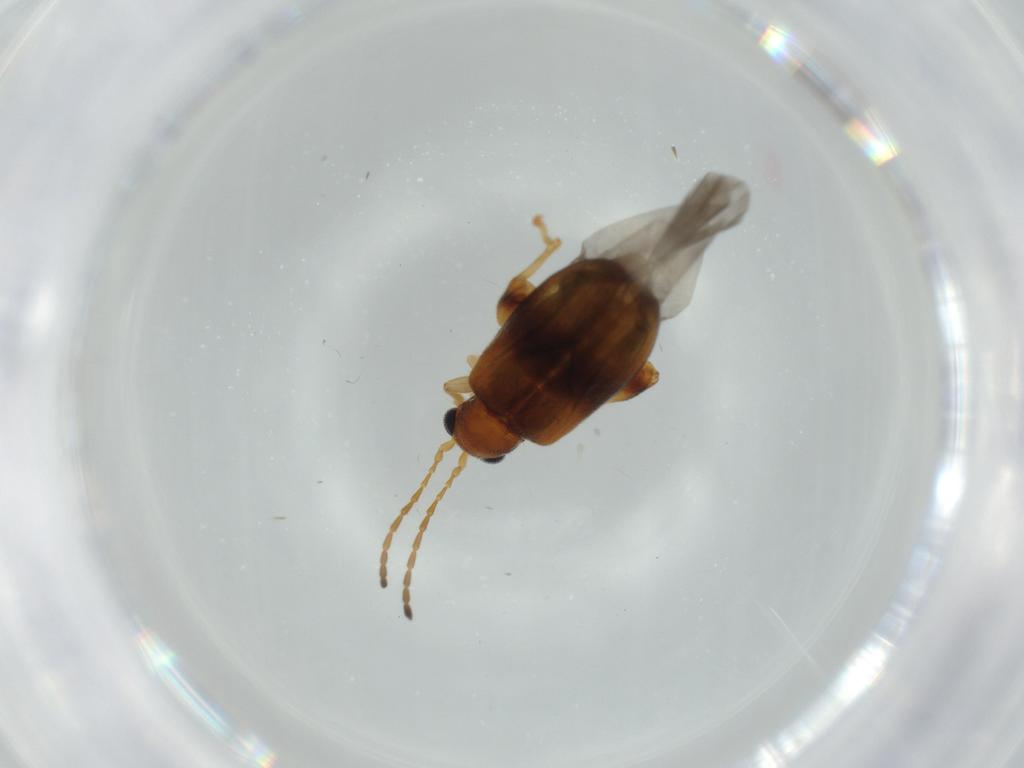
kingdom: Animalia
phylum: Arthropoda
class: Insecta
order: Coleoptera
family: Chrysomelidae
